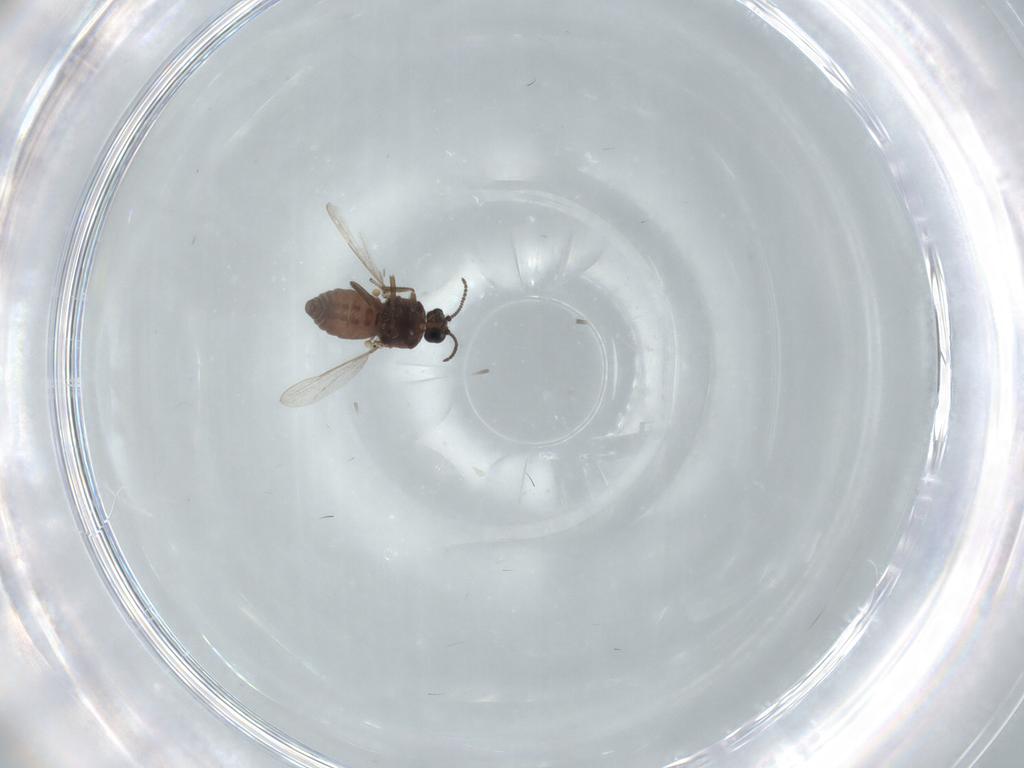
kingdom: Animalia
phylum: Arthropoda
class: Insecta
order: Diptera
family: Ceratopogonidae
